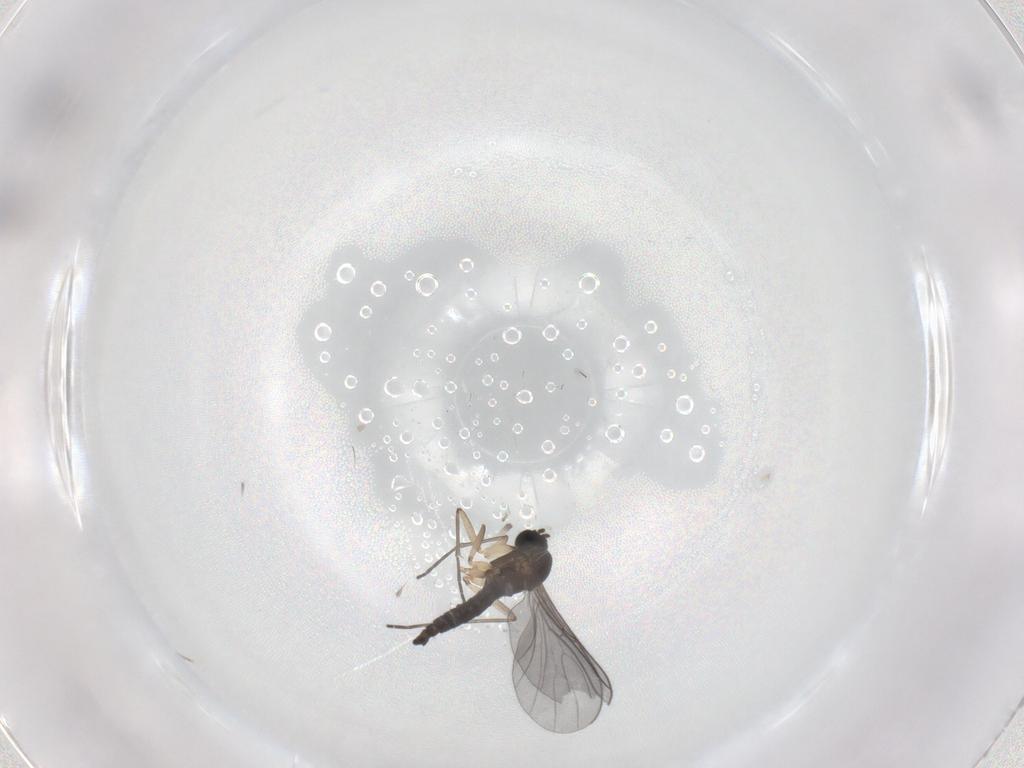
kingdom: Animalia
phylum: Arthropoda
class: Insecta
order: Diptera
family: Sciaridae
